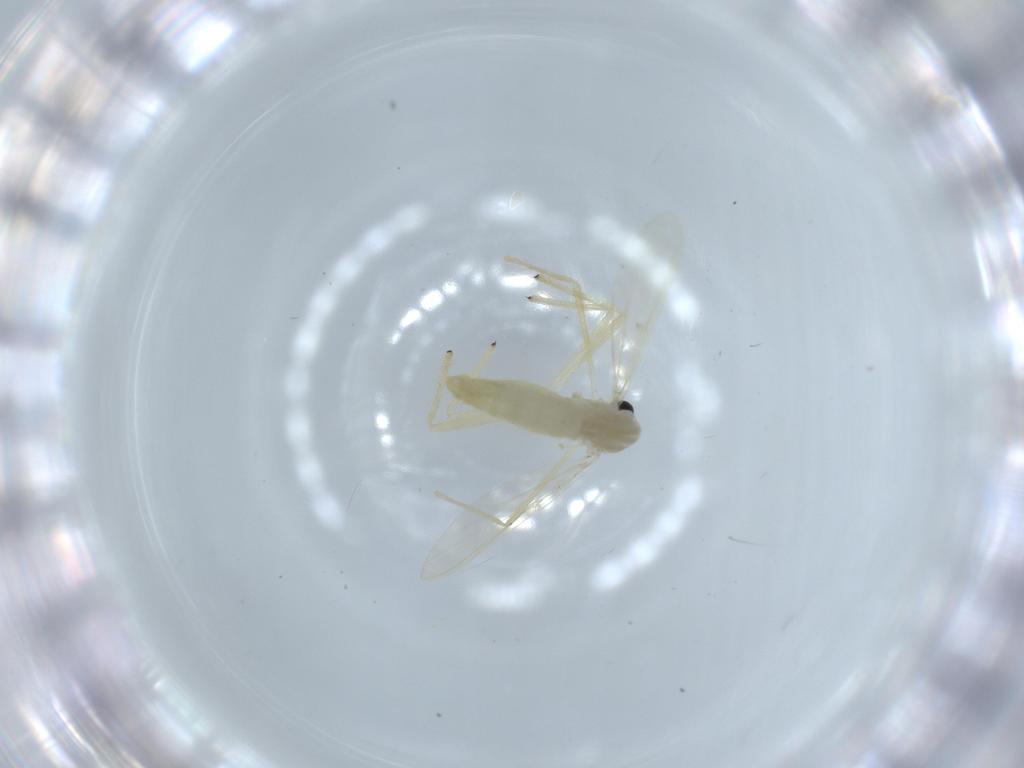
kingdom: Animalia
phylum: Arthropoda
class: Insecta
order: Diptera
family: Chironomidae
